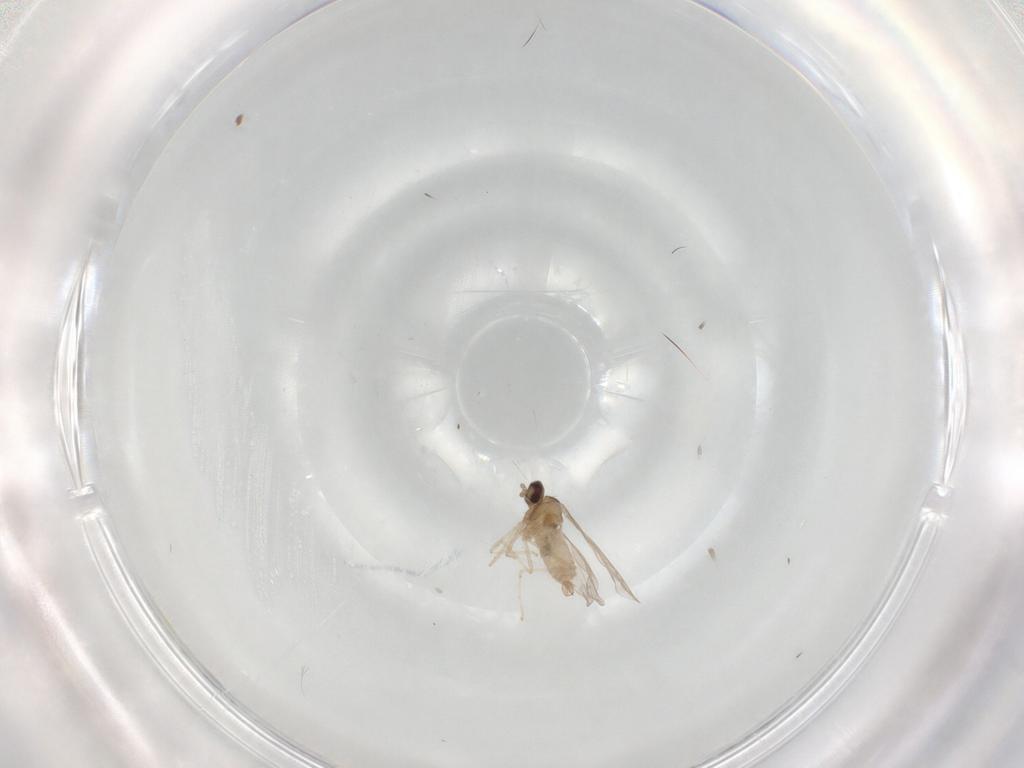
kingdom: Animalia
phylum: Arthropoda
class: Insecta
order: Diptera
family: Cecidomyiidae
